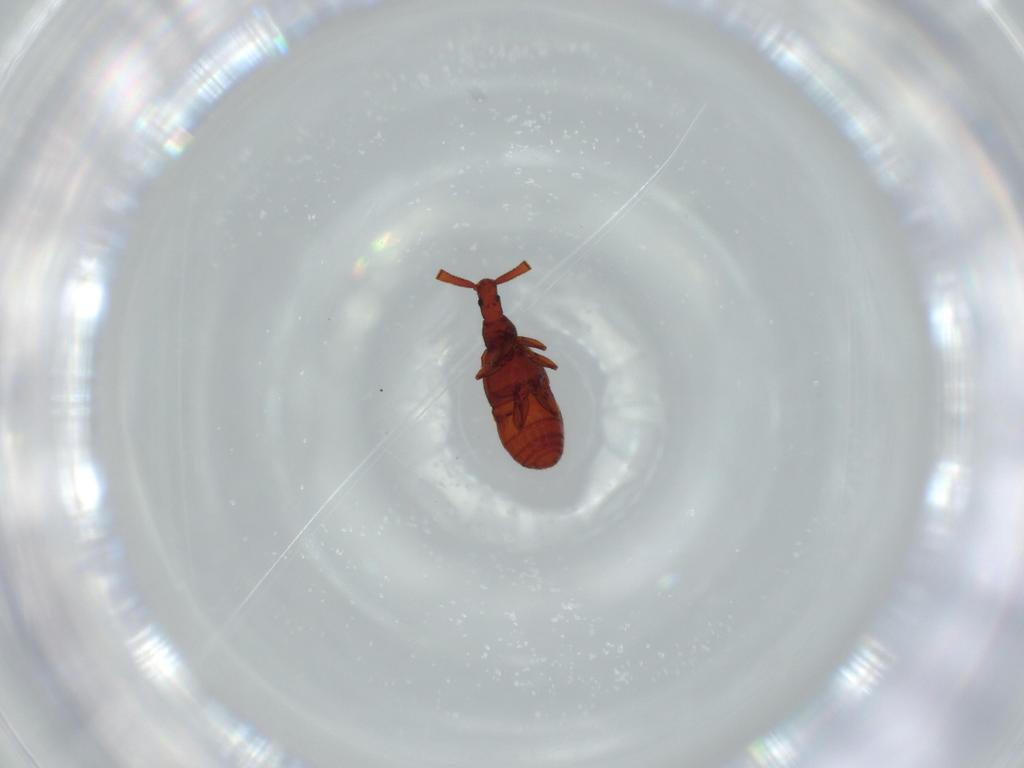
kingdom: Animalia
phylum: Arthropoda
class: Insecta
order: Coleoptera
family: Staphylinidae
